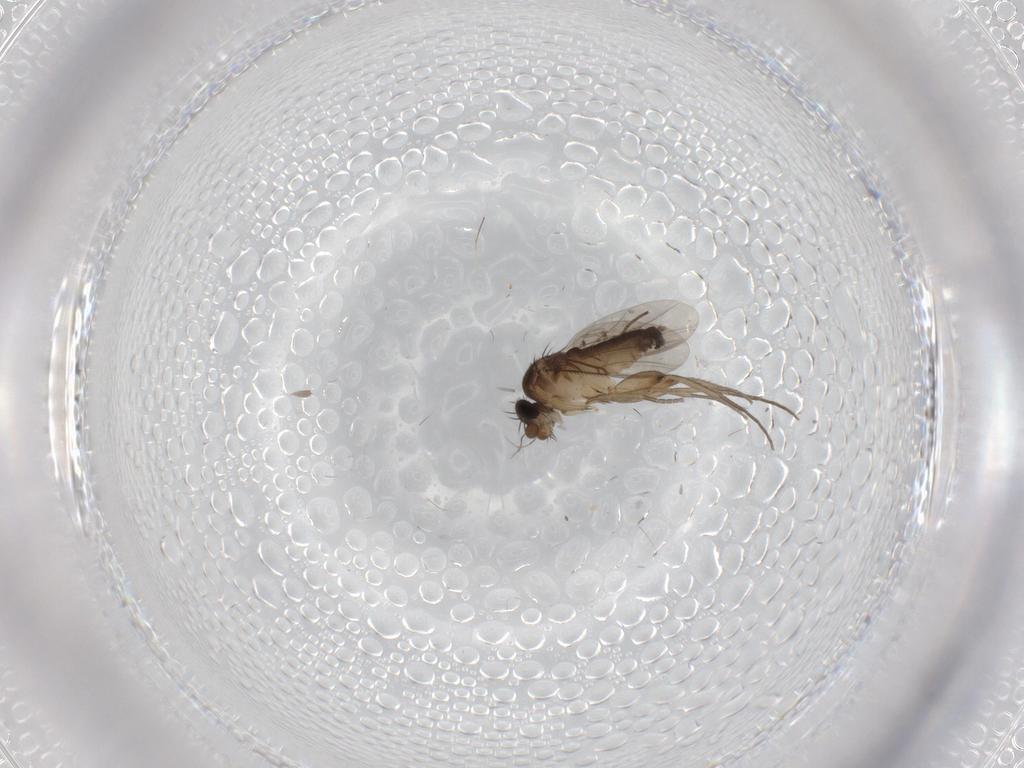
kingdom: Animalia
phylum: Arthropoda
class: Insecta
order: Diptera
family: Phoridae
